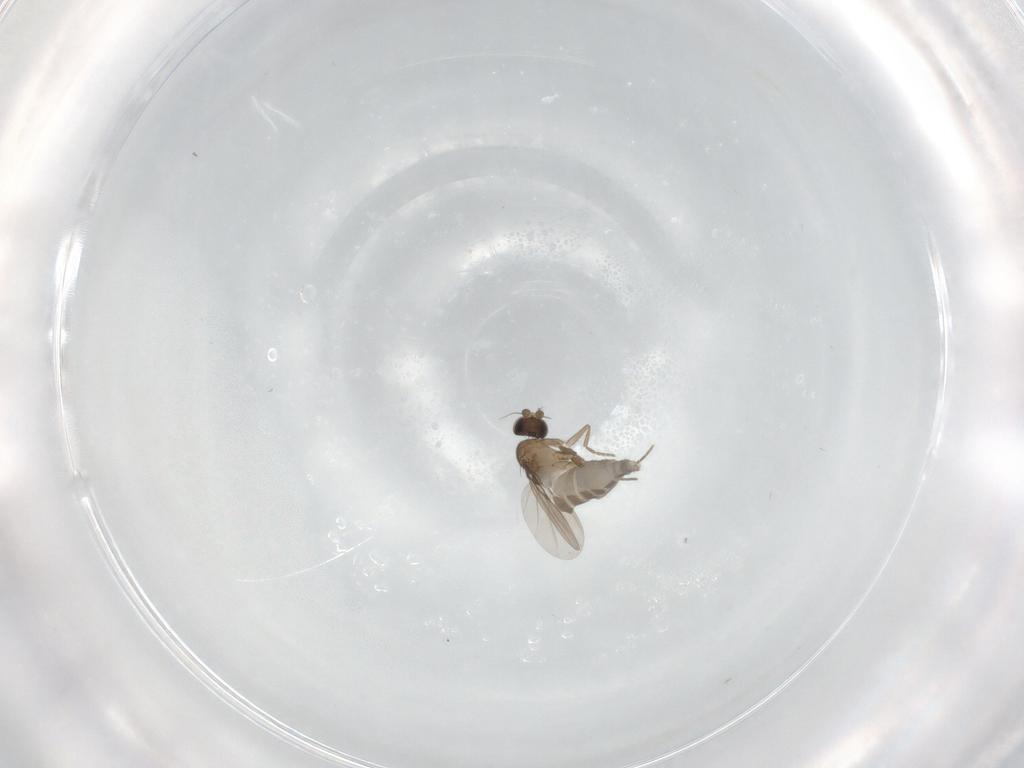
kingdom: Animalia
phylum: Arthropoda
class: Insecta
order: Diptera
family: Phoridae
